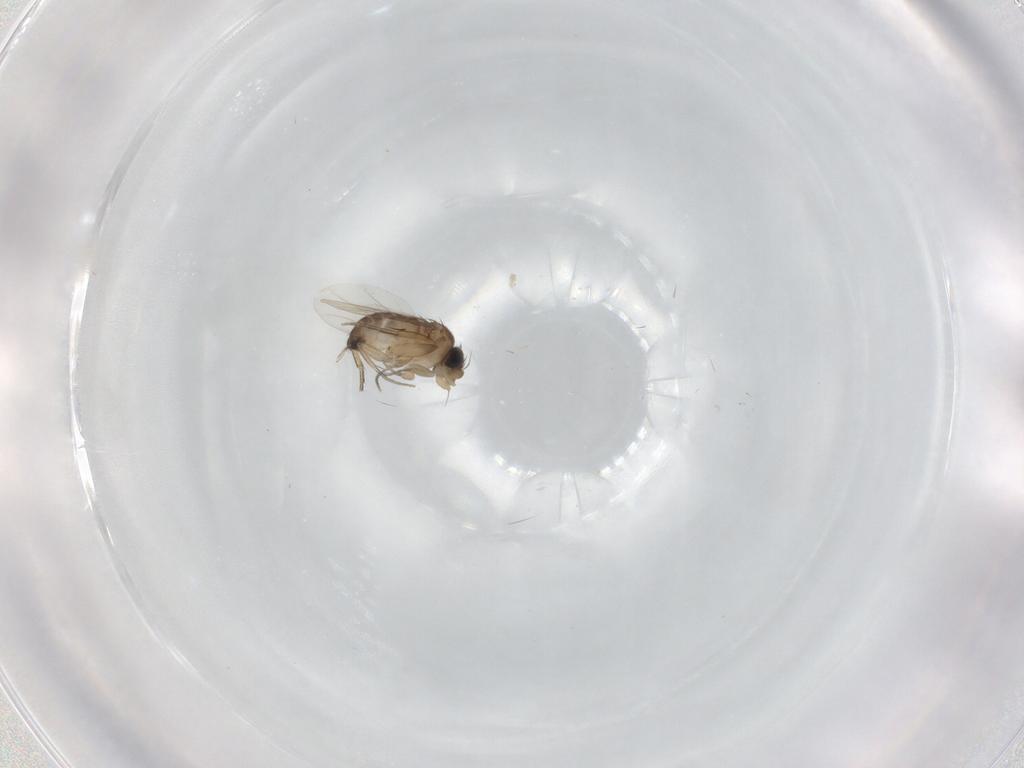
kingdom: Animalia
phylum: Arthropoda
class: Insecta
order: Diptera
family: Phoridae
